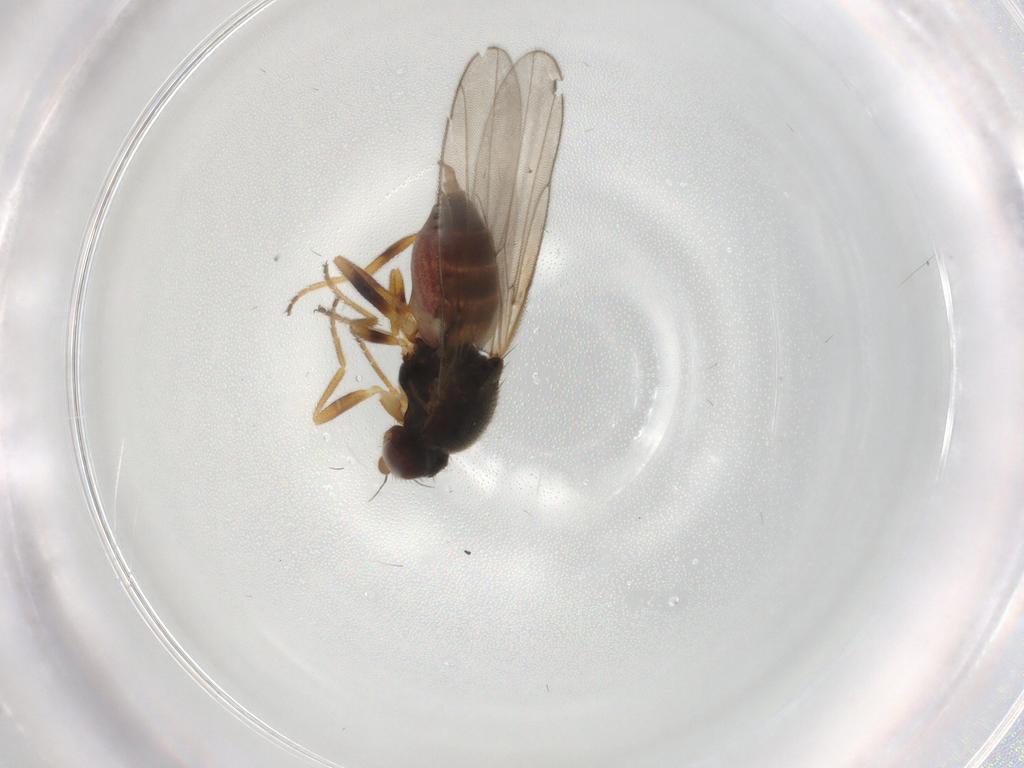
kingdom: Animalia
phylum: Arthropoda
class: Insecta
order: Diptera
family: Chloropidae
